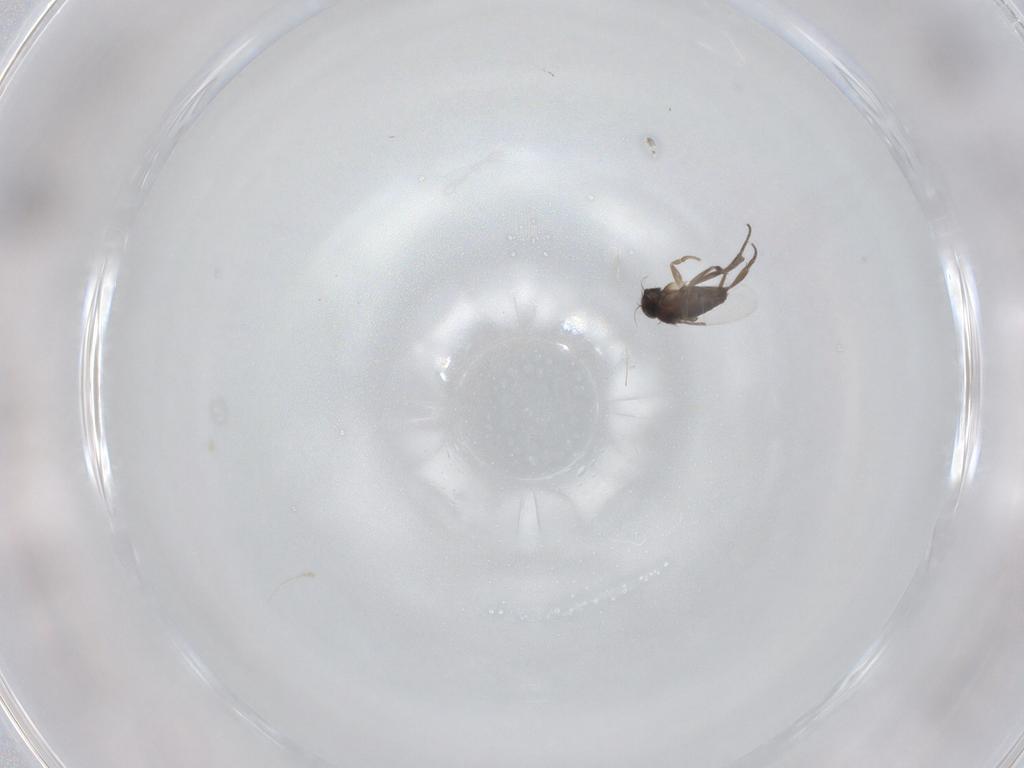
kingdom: Animalia
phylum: Arthropoda
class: Insecta
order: Diptera
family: Phoridae
